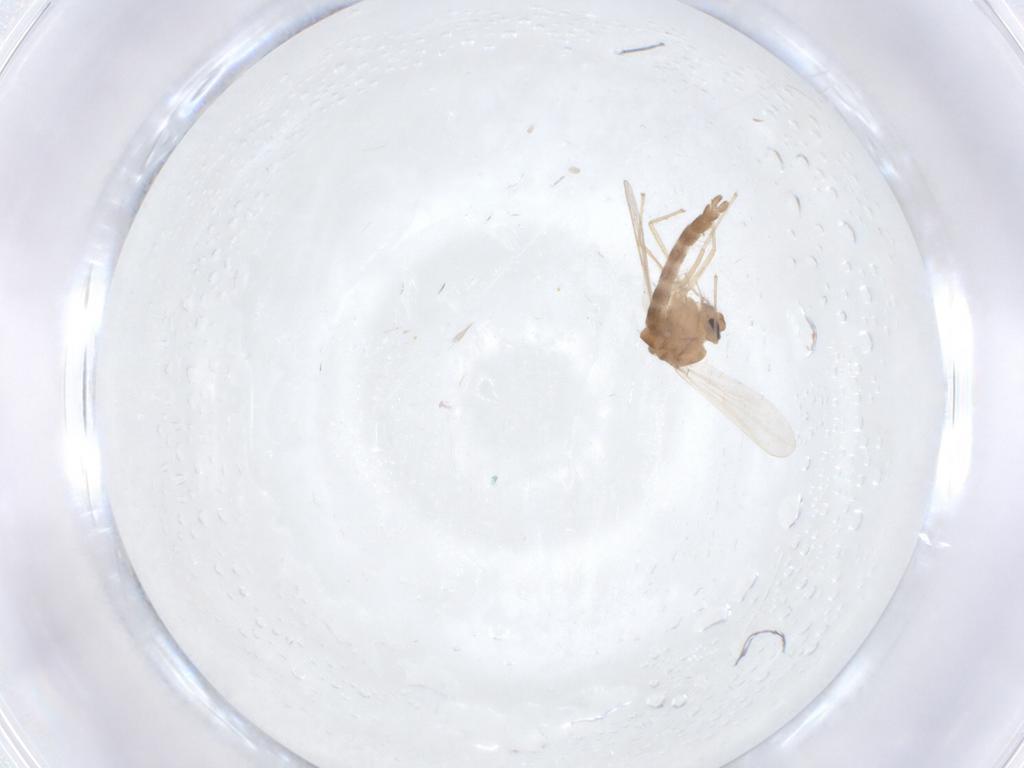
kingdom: Animalia
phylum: Arthropoda
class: Insecta
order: Diptera
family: Chironomidae
